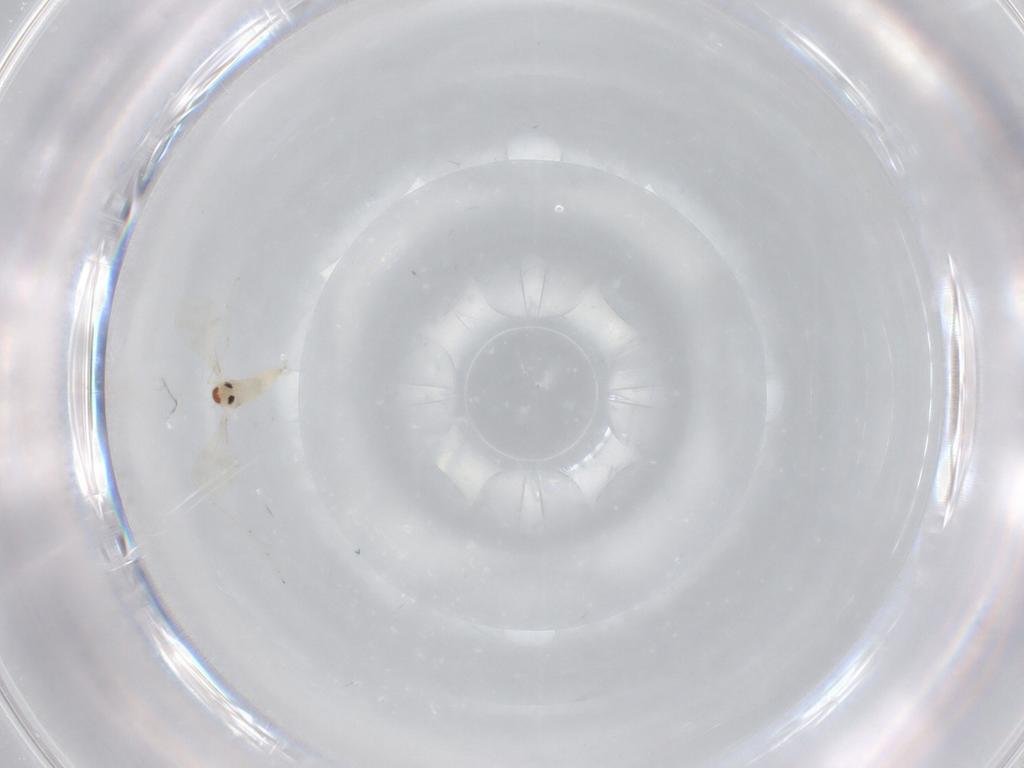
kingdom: Animalia
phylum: Arthropoda
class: Insecta
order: Diptera
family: Cecidomyiidae
